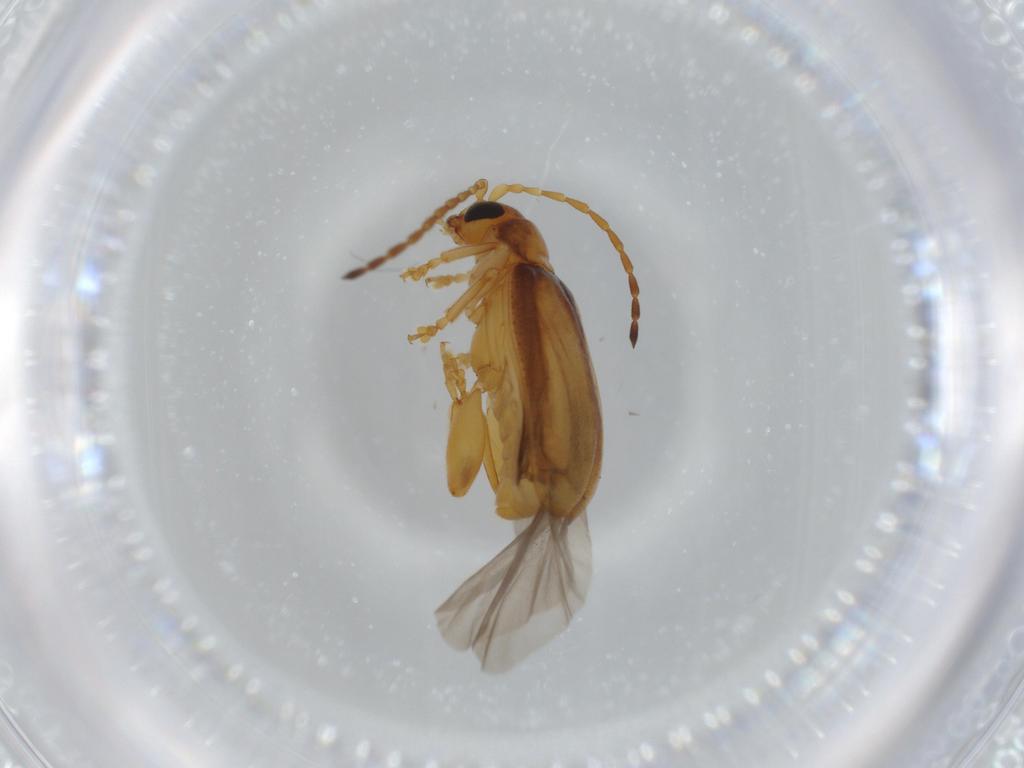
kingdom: Animalia
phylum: Arthropoda
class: Insecta
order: Coleoptera
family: Chrysomelidae
